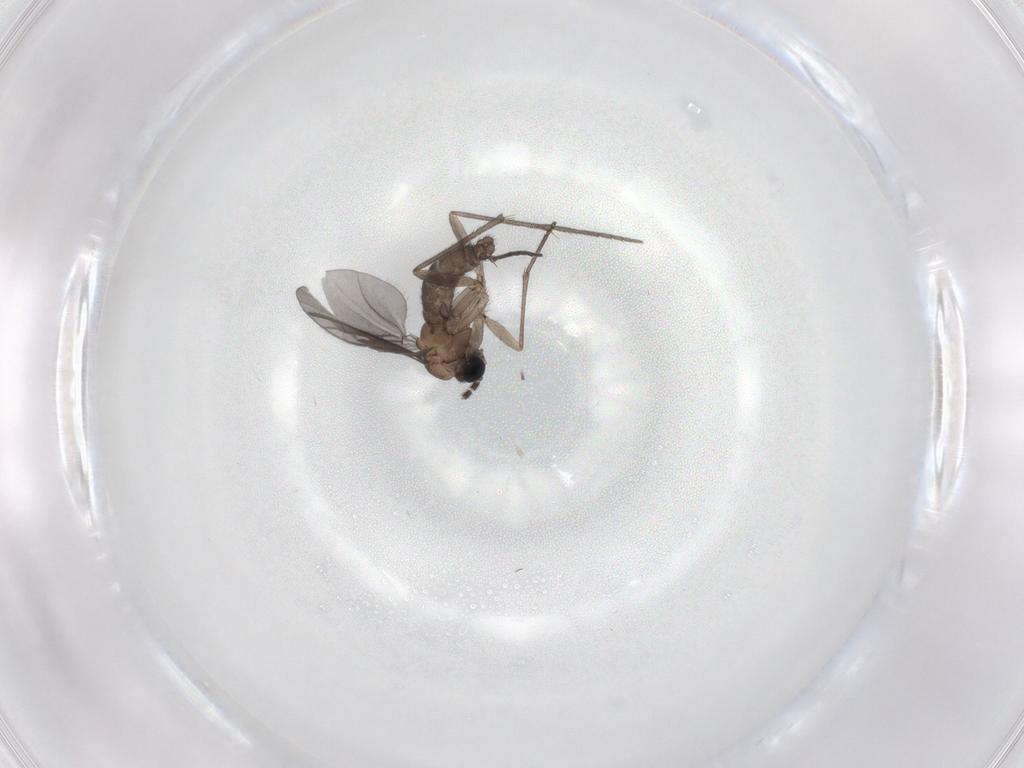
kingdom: Animalia
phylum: Arthropoda
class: Insecta
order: Diptera
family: Sciaridae
